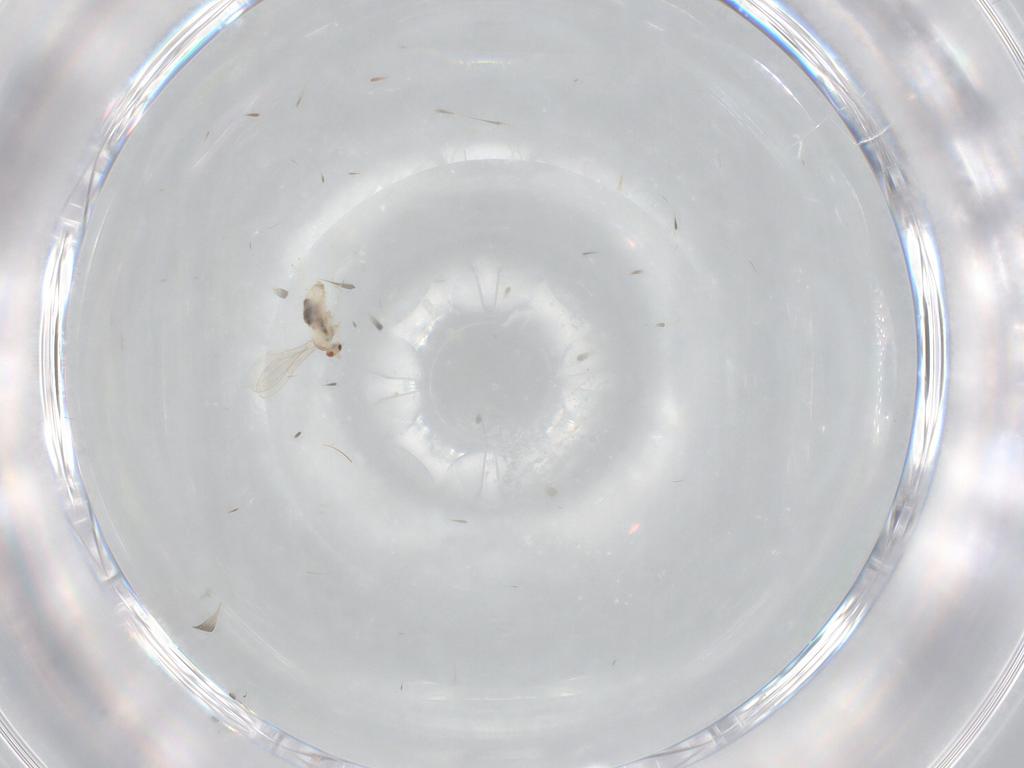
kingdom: Animalia
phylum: Arthropoda
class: Insecta
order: Diptera
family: Cecidomyiidae
